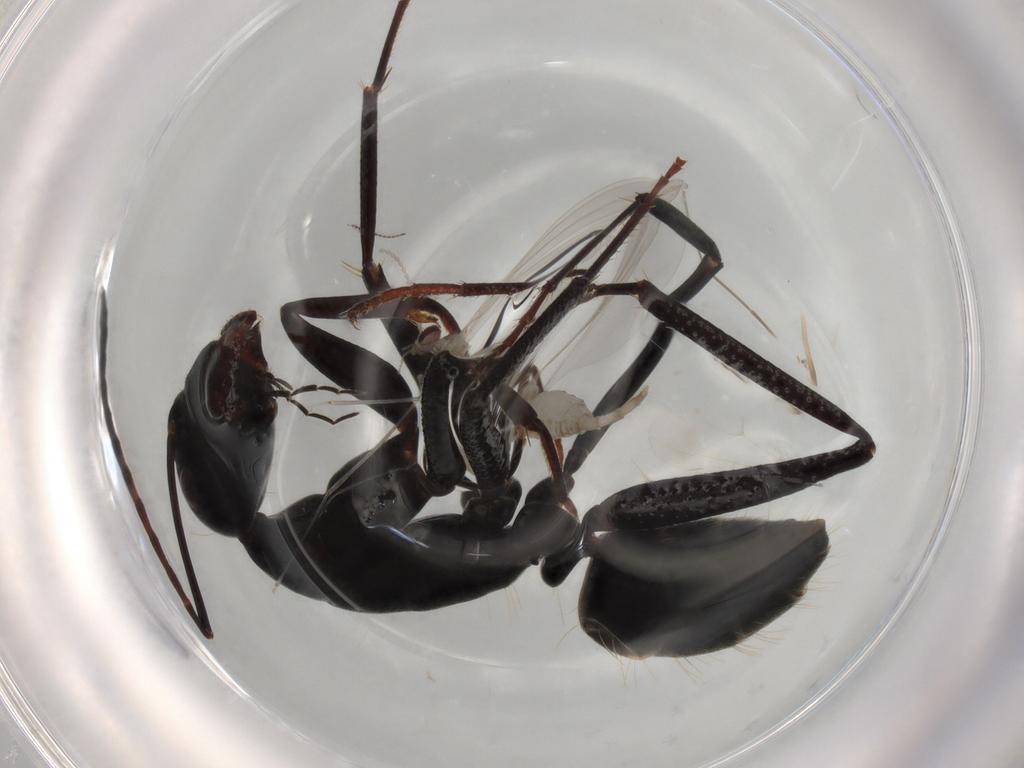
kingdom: Animalia
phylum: Arthropoda
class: Insecta
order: Hymenoptera
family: Formicidae
